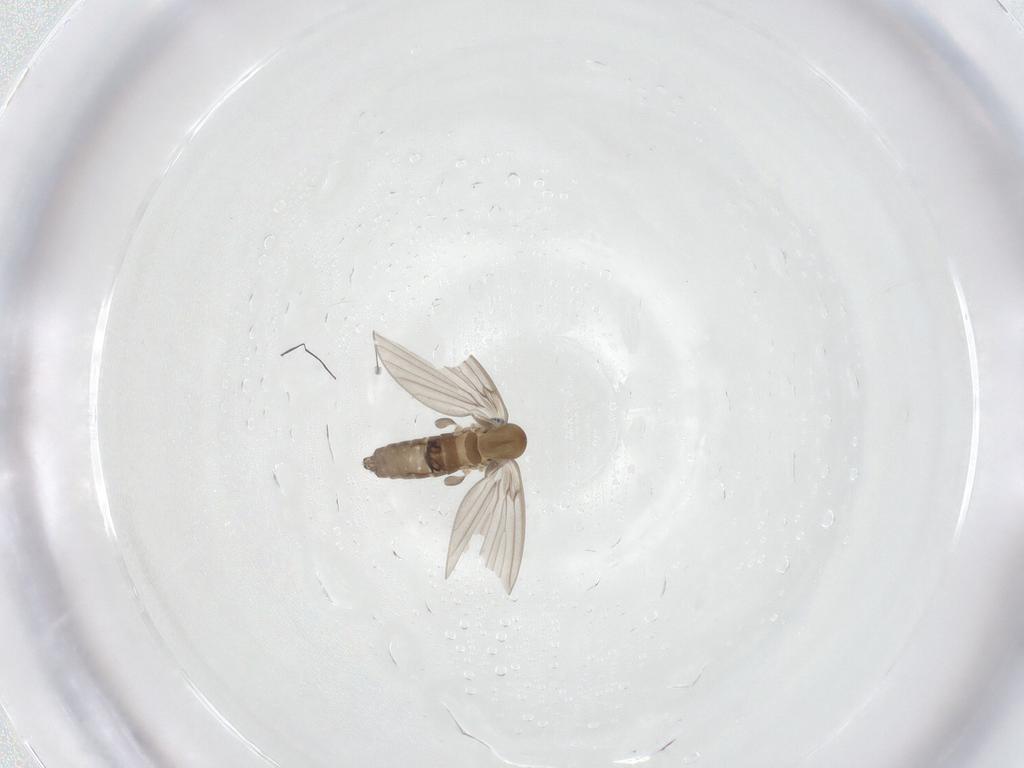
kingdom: Animalia
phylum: Arthropoda
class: Insecta
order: Diptera
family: Psychodidae
